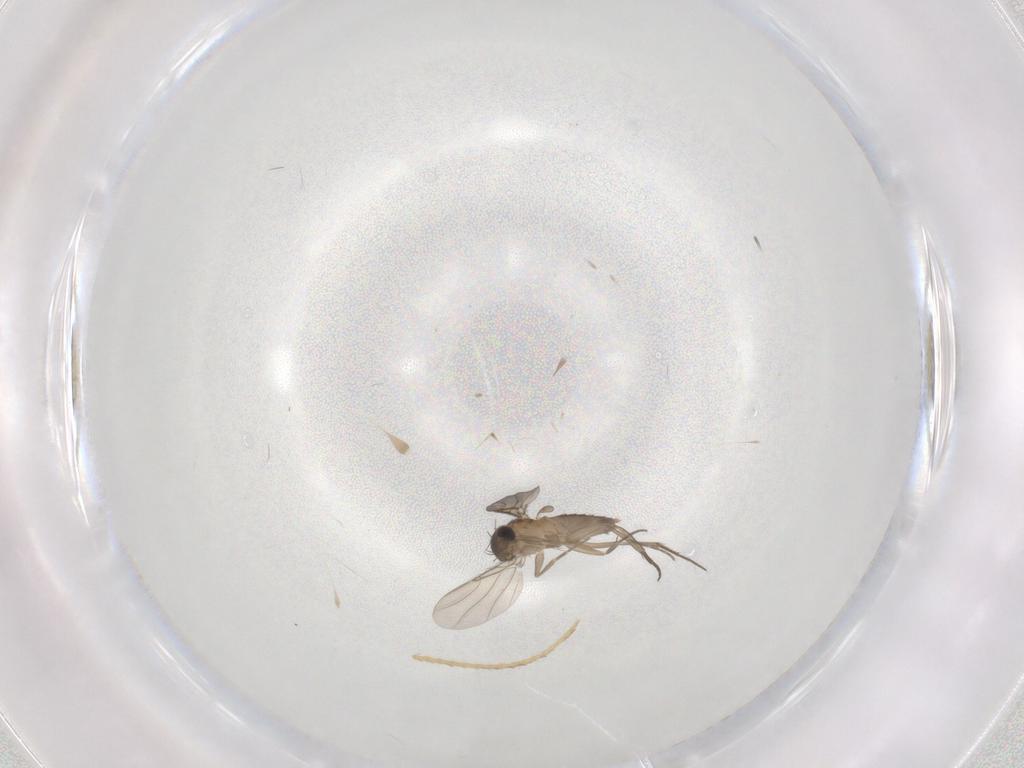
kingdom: Animalia
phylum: Arthropoda
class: Insecta
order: Diptera
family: Phoridae
